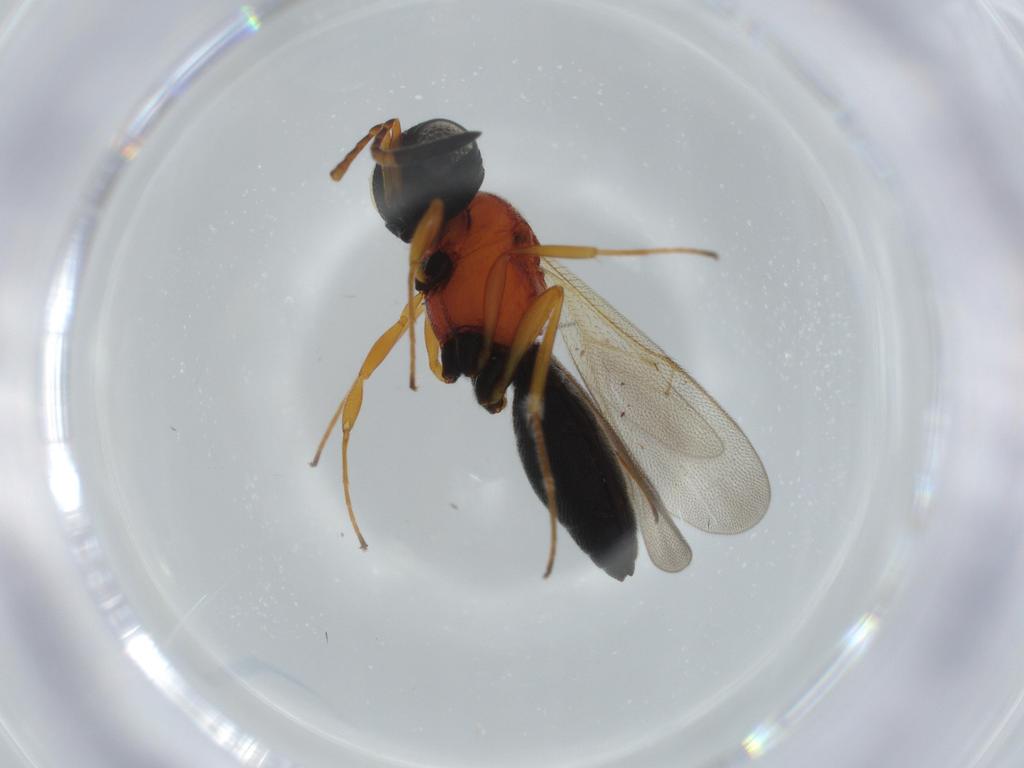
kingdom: Animalia
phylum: Arthropoda
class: Insecta
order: Hymenoptera
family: Scelionidae
